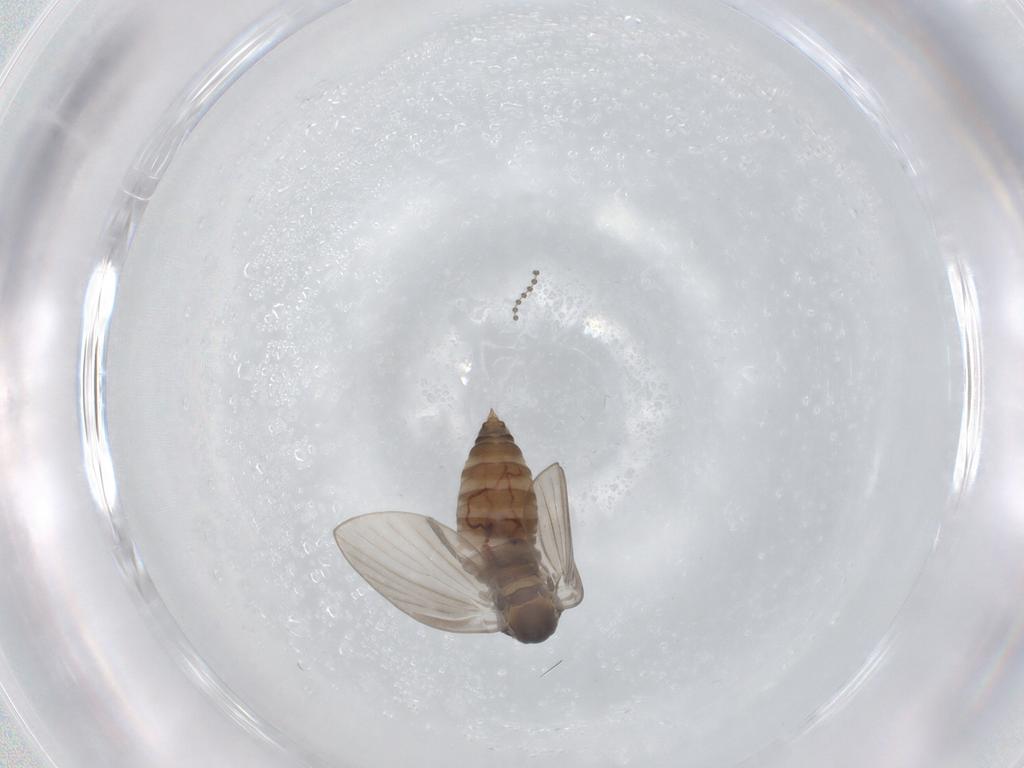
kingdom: Animalia
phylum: Arthropoda
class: Insecta
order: Diptera
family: Psychodidae
